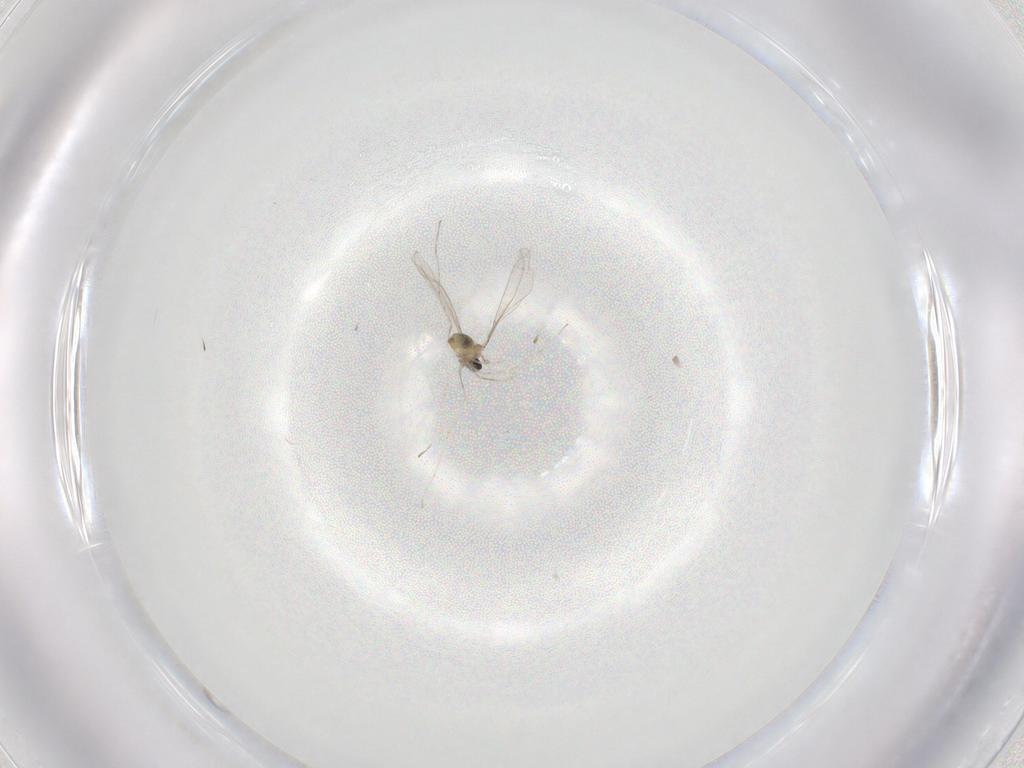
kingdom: Animalia
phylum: Arthropoda
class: Insecta
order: Diptera
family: Cecidomyiidae
